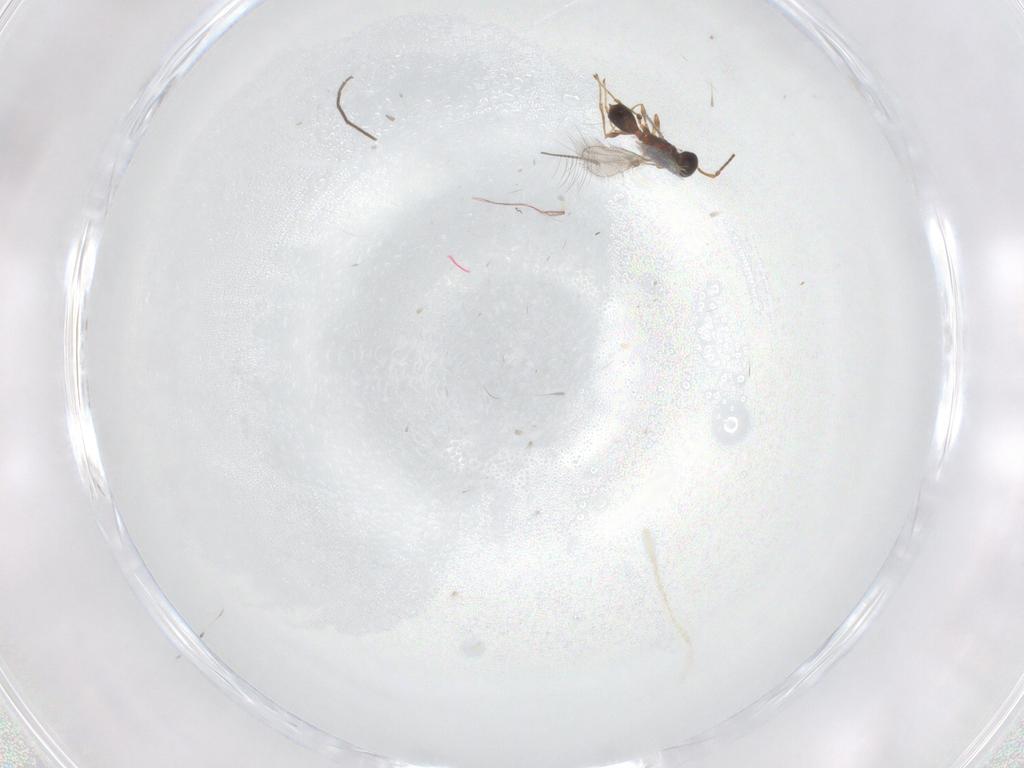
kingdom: Animalia
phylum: Arthropoda
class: Insecta
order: Hymenoptera
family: Diapriidae
